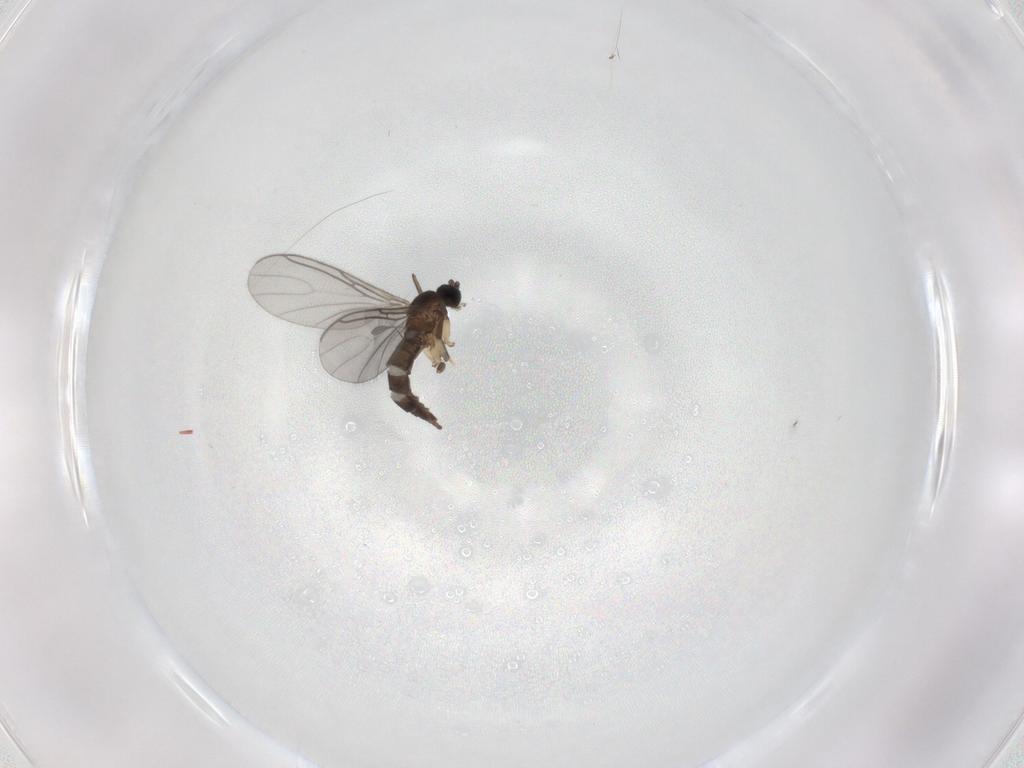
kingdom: Animalia
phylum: Arthropoda
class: Insecta
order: Diptera
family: Sciaridae
